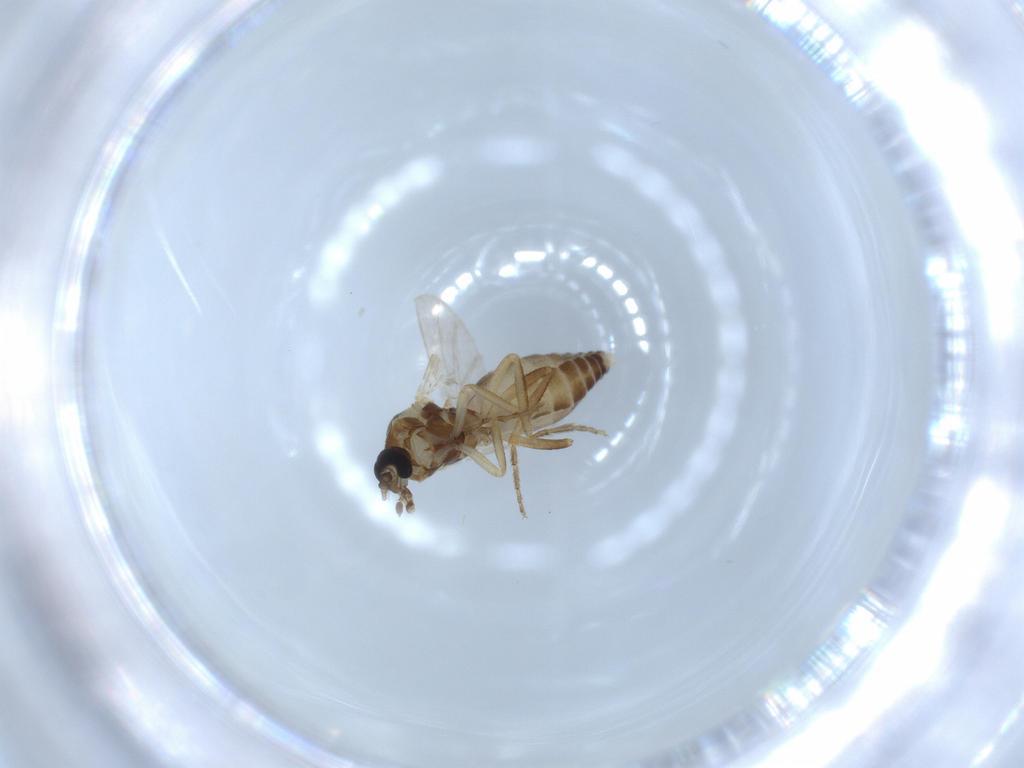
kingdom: Animalia
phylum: Arthropoda
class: Insecta
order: Diptera
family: Ceratopogonidae
